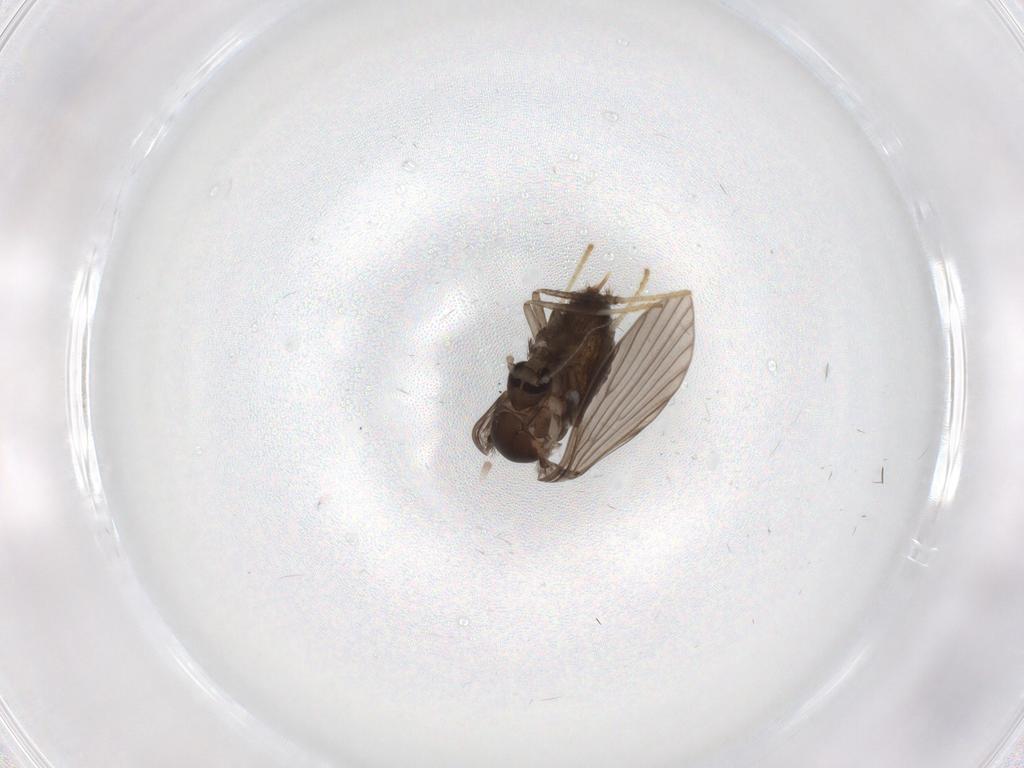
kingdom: Animalia
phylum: Arthropoda
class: Insecta
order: Diptera
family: Psychodidae
